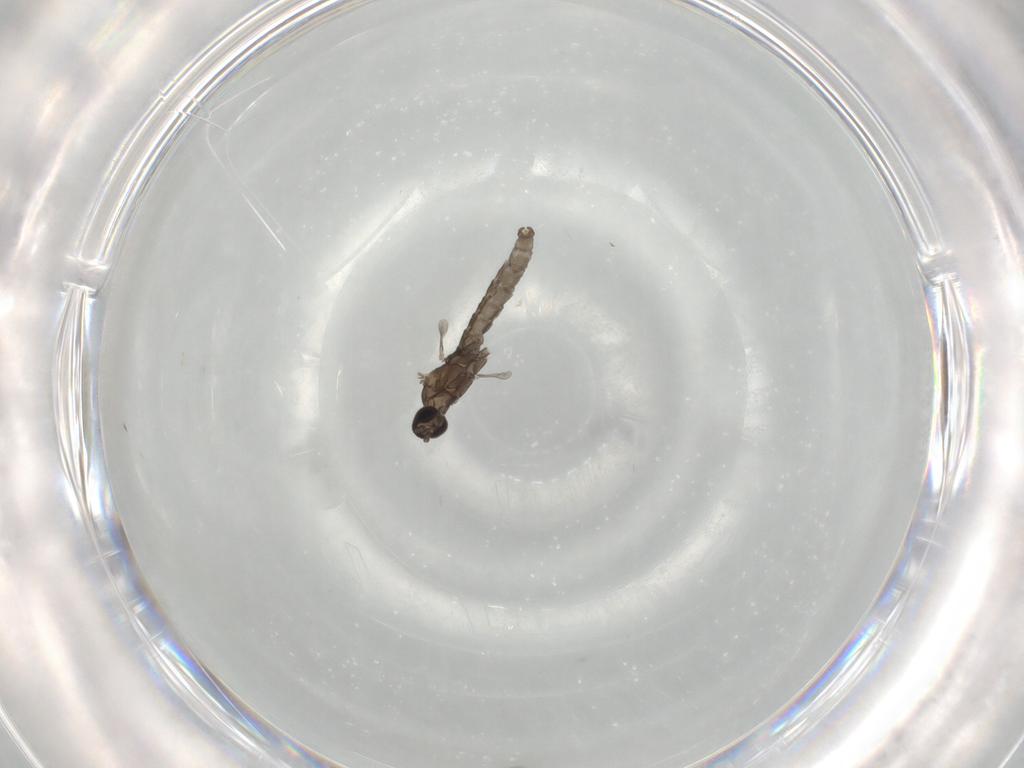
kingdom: Animalia
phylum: Arthropoda
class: Insecta
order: Diptera
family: Cecidomyiidae
